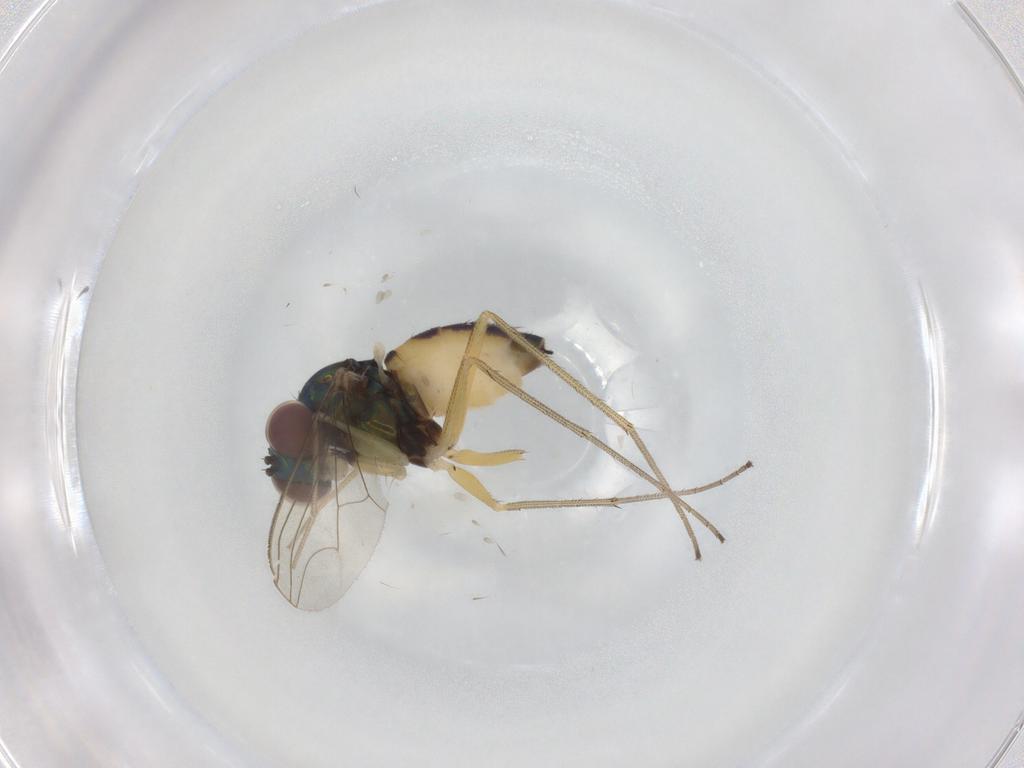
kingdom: Animalia
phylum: Arthropoda
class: Insecta
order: Diptera
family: Dolichopodidae
